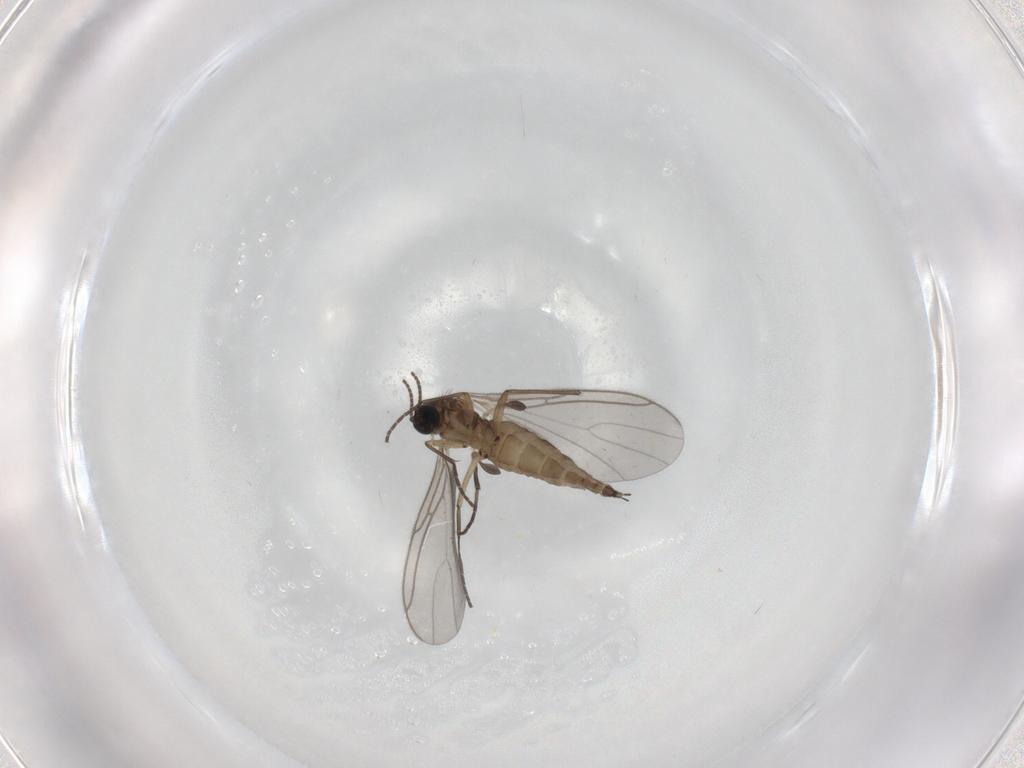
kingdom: Animalia
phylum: Arthropoda
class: Insecta
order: Diptera
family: Sciaridae
